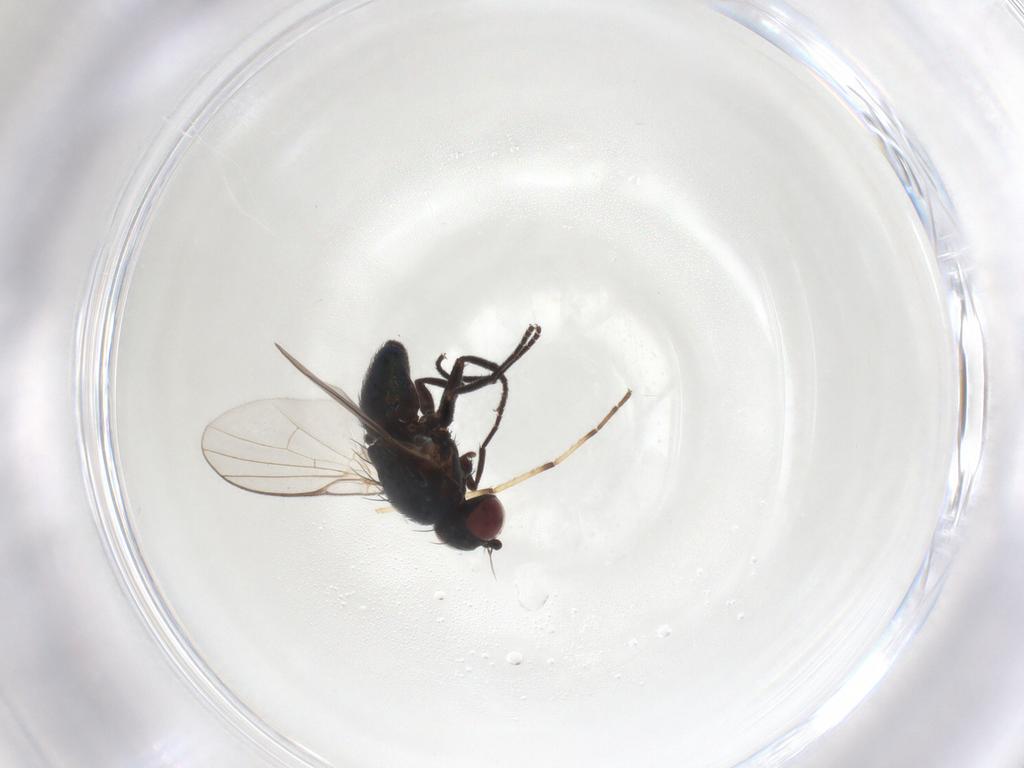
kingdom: Animalia
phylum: Arthropoda
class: Insecta
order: Diptera
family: Agromyzidae
